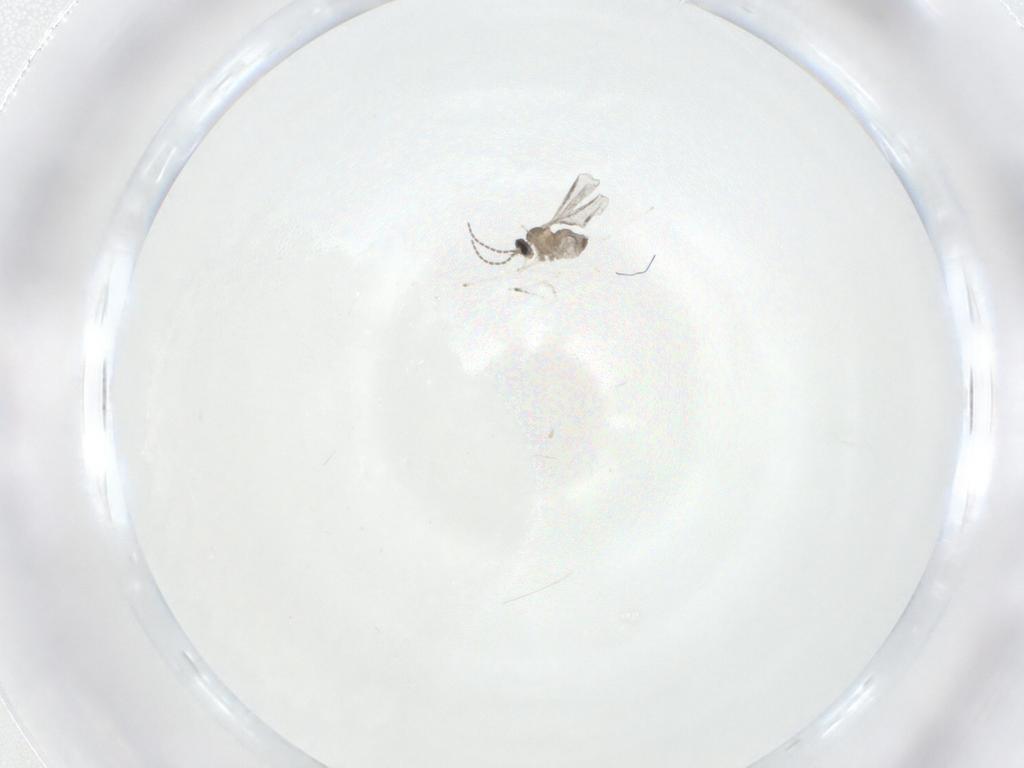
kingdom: Animalia
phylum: Arthropoda
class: Insecta
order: Diptera
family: Cecidomyiidae
